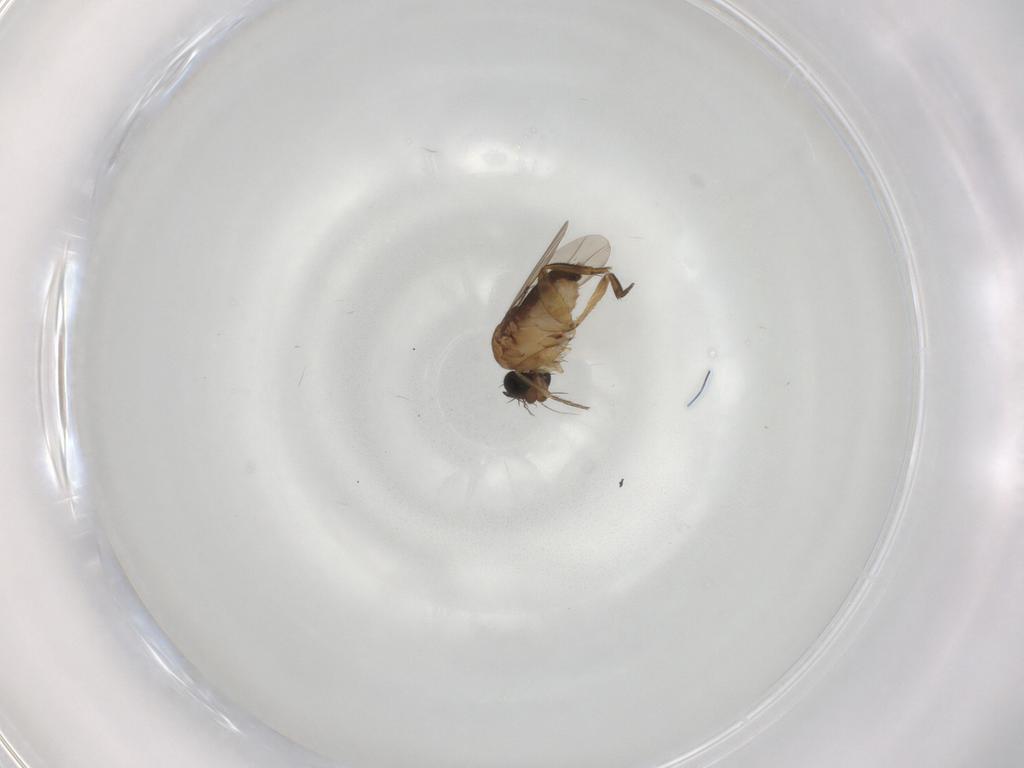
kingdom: Animalia
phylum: Arthropoda
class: Insecta
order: Diptera
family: Phoridae
